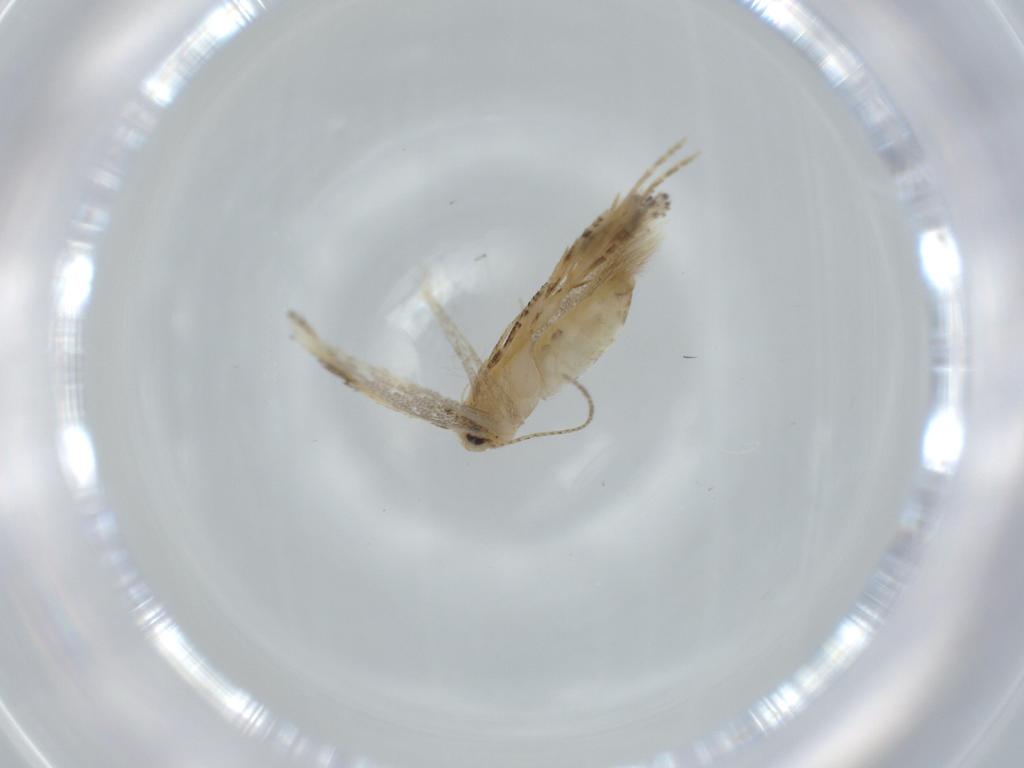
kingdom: Animalia
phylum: Arthropoda
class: Insecta
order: Lepidoptera
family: Bucculatricidae
